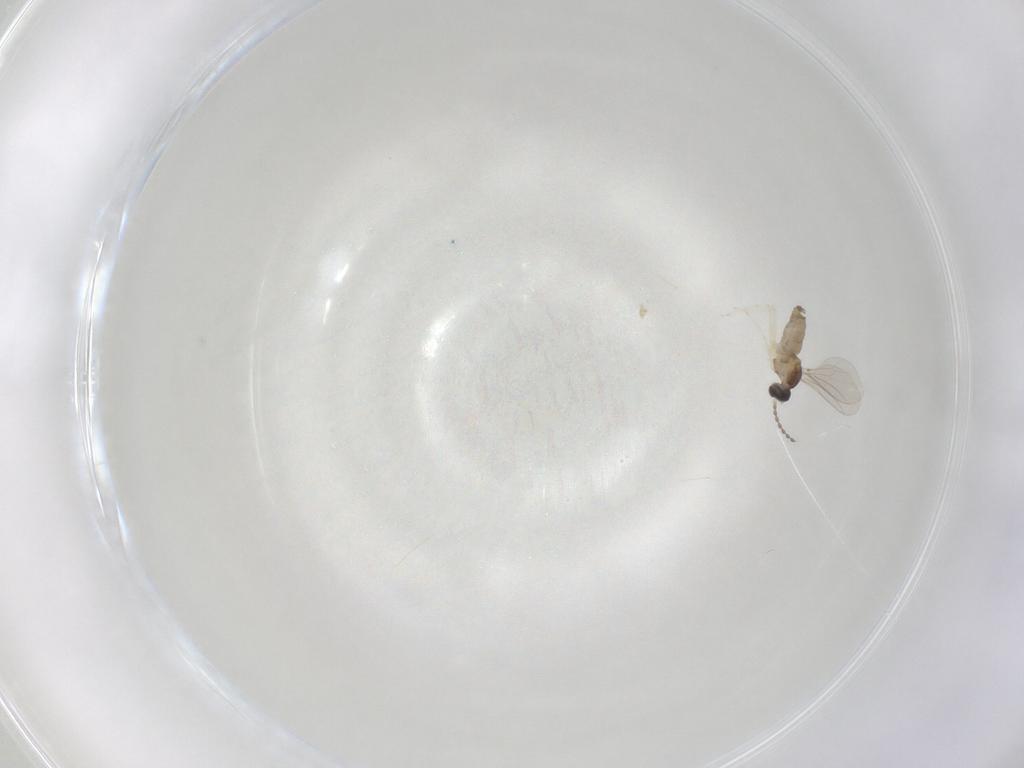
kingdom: Animalia
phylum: Arthropoda
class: Insecta
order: Diptera
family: Cecidomyiidae
